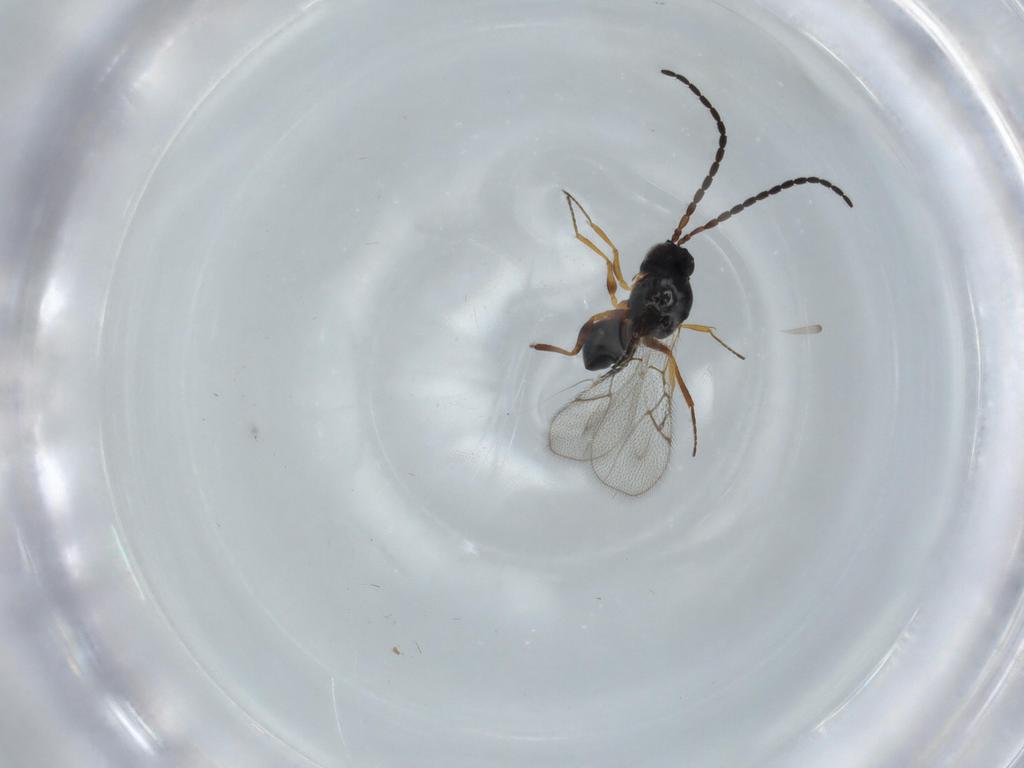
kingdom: Animalia
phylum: Arthropoda
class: Insecta
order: Hymenoptera
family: Figitidae
